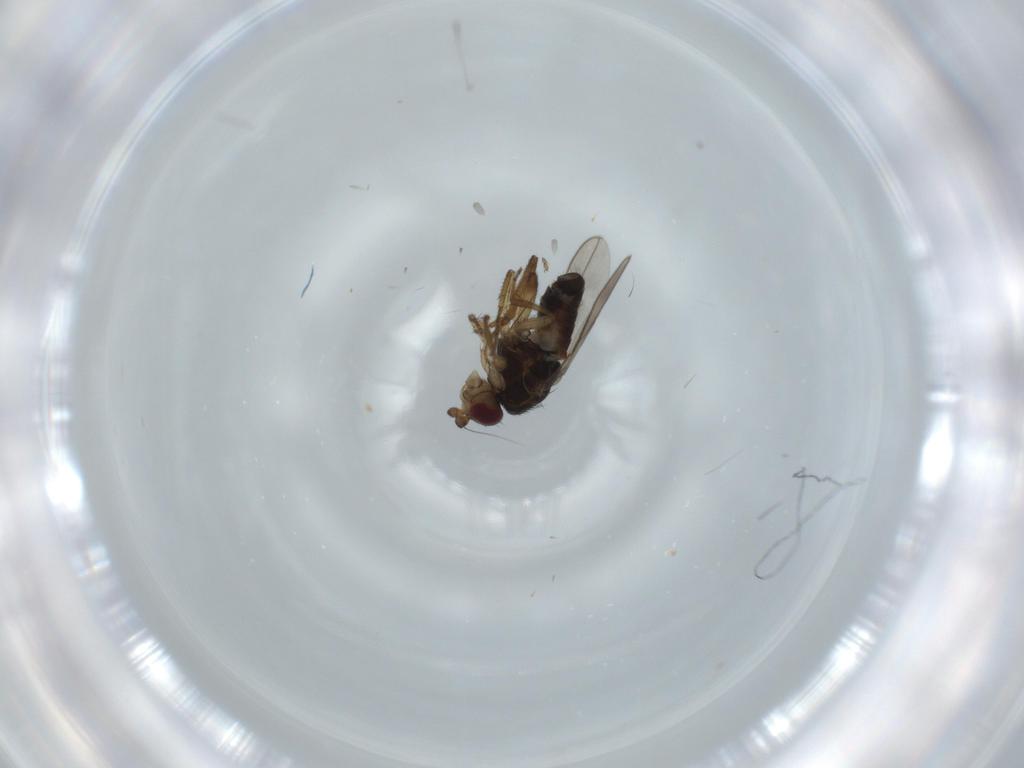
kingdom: Animalia
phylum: Arthropoda
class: Insecta
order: Diptera
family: Sphaeroceridae
